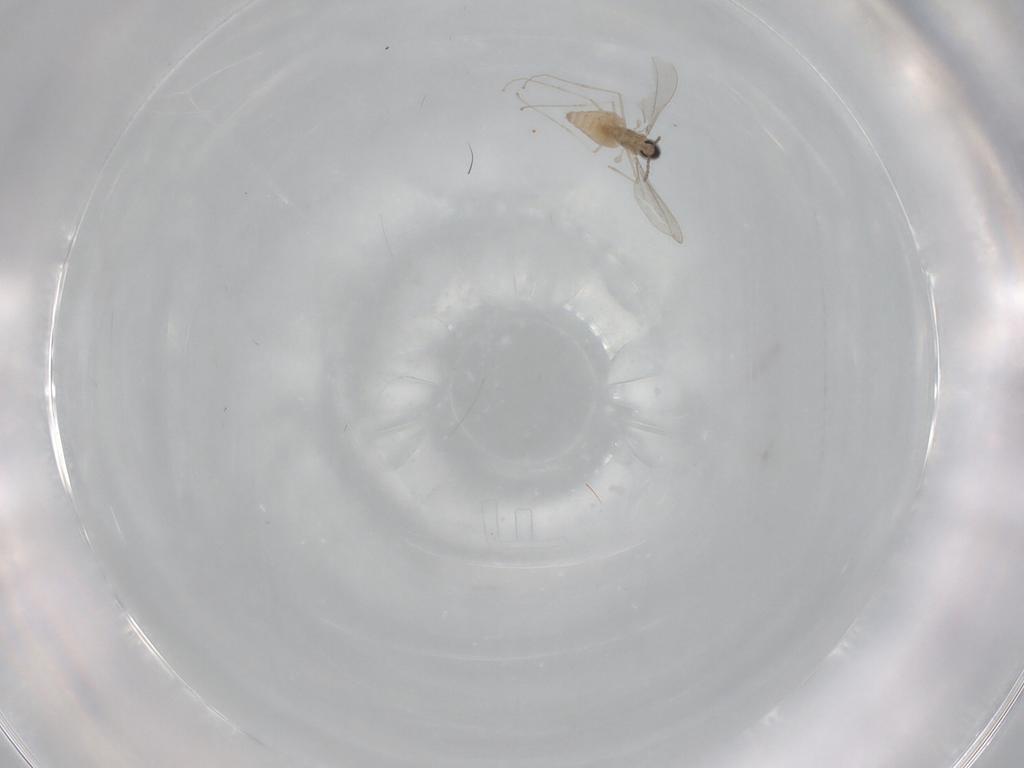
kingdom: Animalia
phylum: Arthropoda
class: Insecta
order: Diptera
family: Cecidomyiidae
